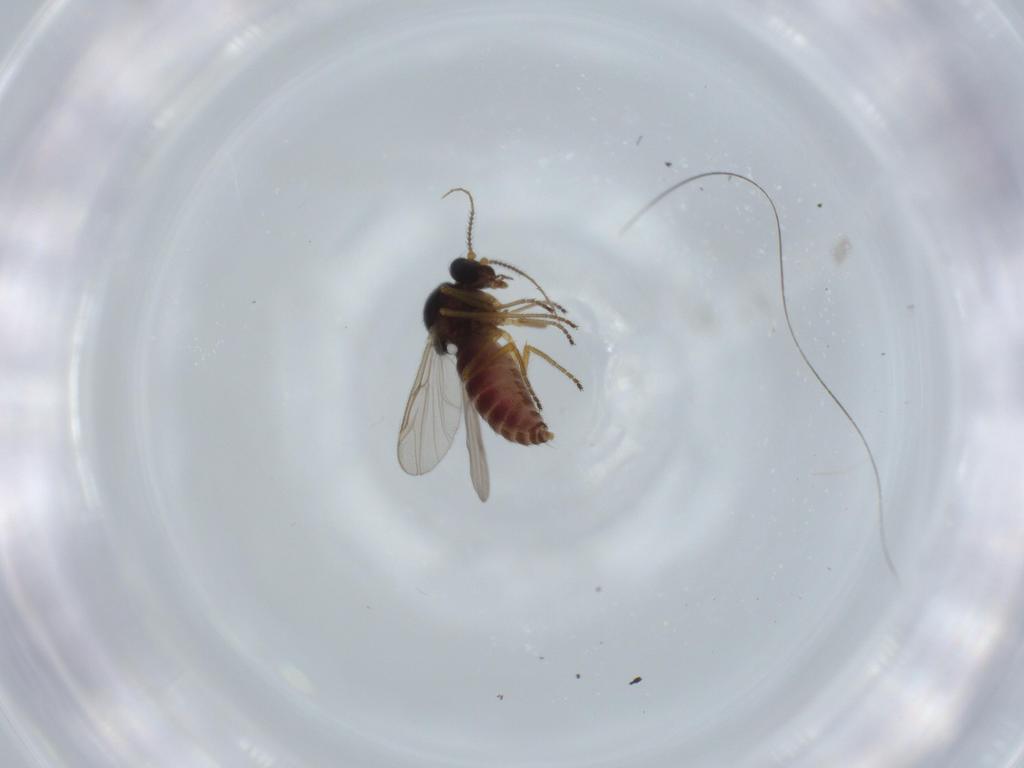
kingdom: Animalia
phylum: Arthropoda
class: Insecta
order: Diptera
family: Ceratopogonidae
